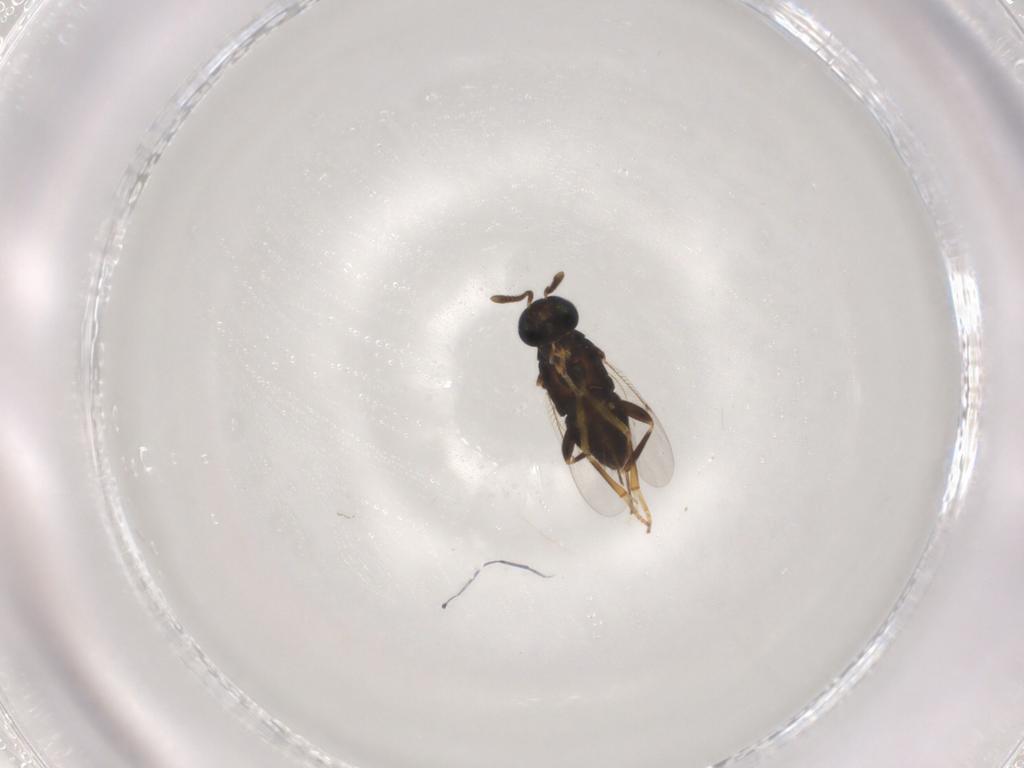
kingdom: Animalia
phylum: Arthropoda
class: Insecta
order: Hymenoptera
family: Encyrtidae
